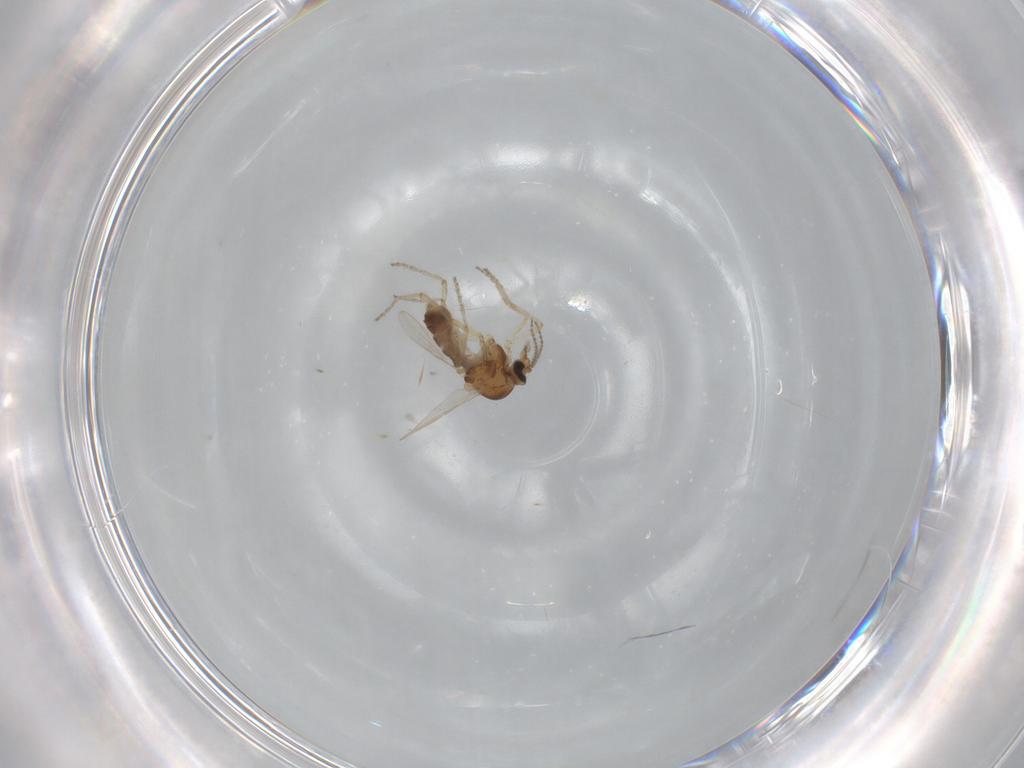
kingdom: Animalia
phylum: Arthropoda
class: Insecta
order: Diptera
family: Ceratopogonidae
